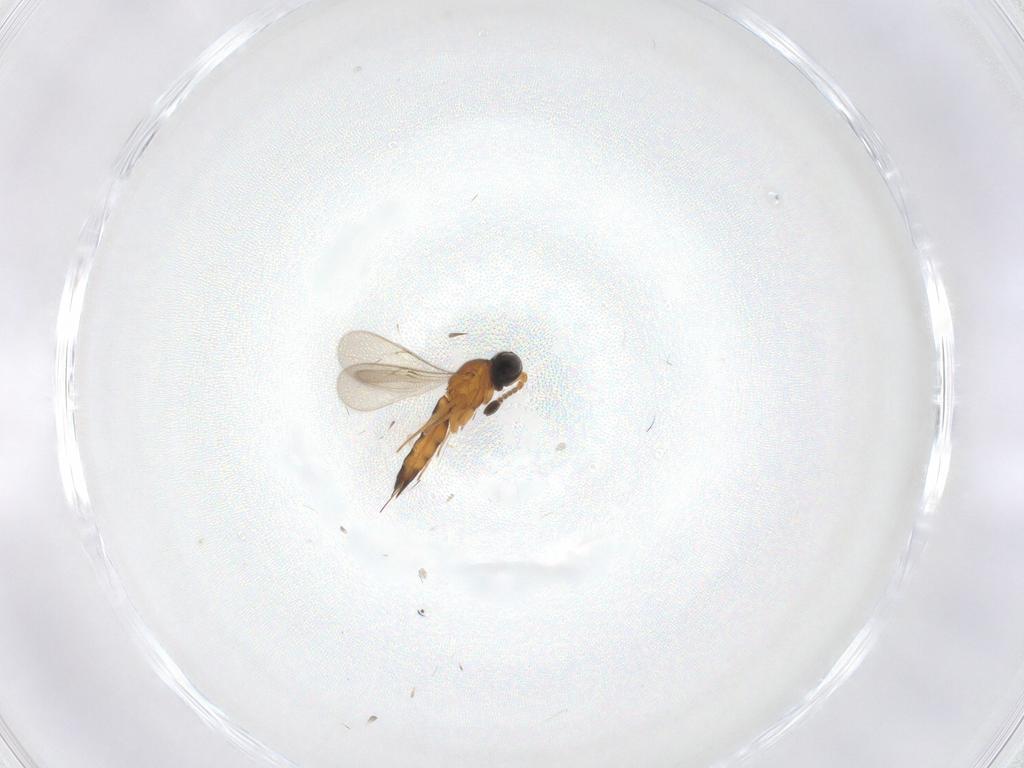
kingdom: Animalia
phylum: Arthropoda
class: Insecta
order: Hymenoptera
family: Scelionidae
